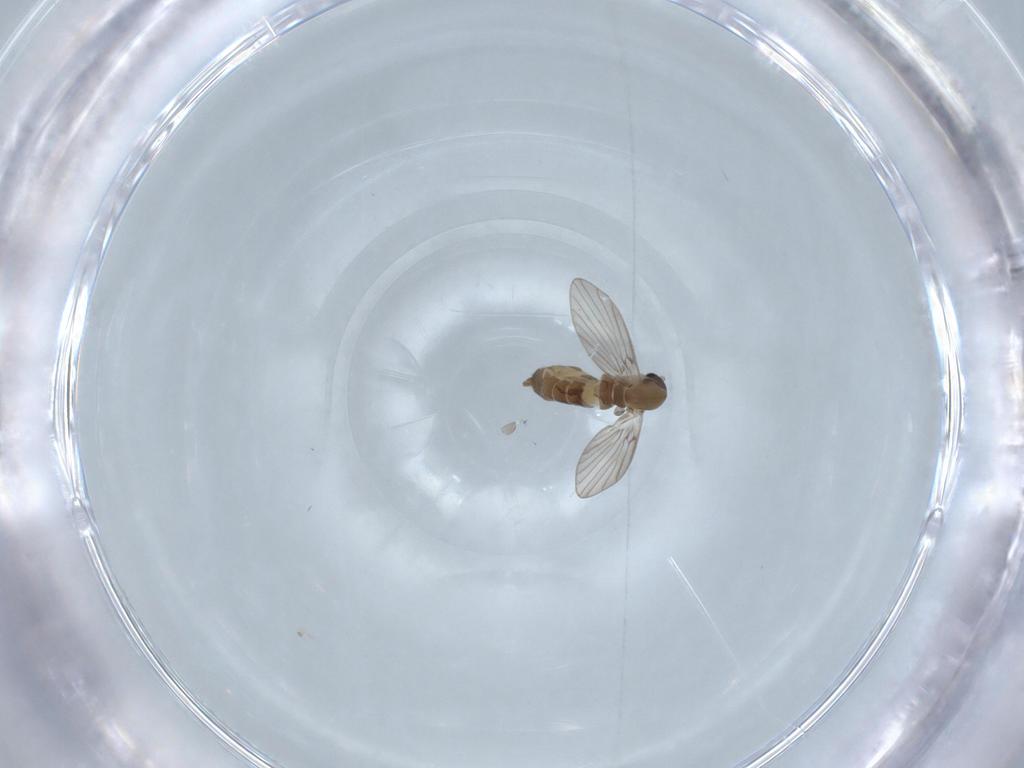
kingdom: Animalia
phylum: Arthropoda
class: Insecta
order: Diptera
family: Psychodidae
